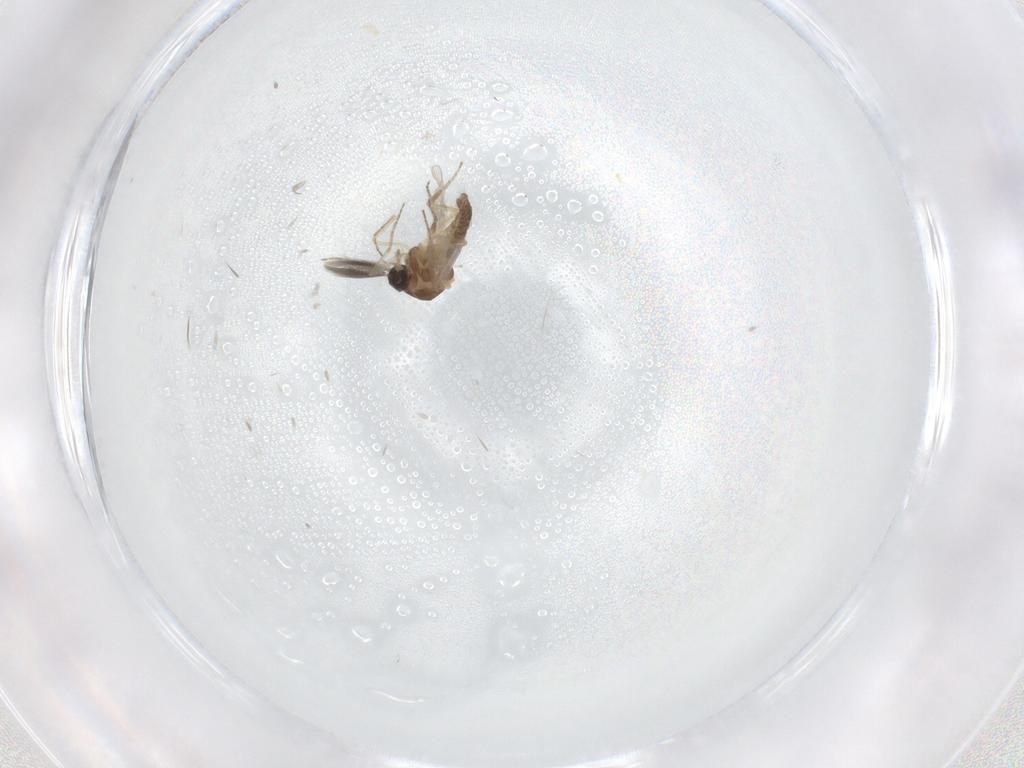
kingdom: Animalia
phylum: Arthropoda
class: Insecta
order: Diptera
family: Ceratopogonidae
